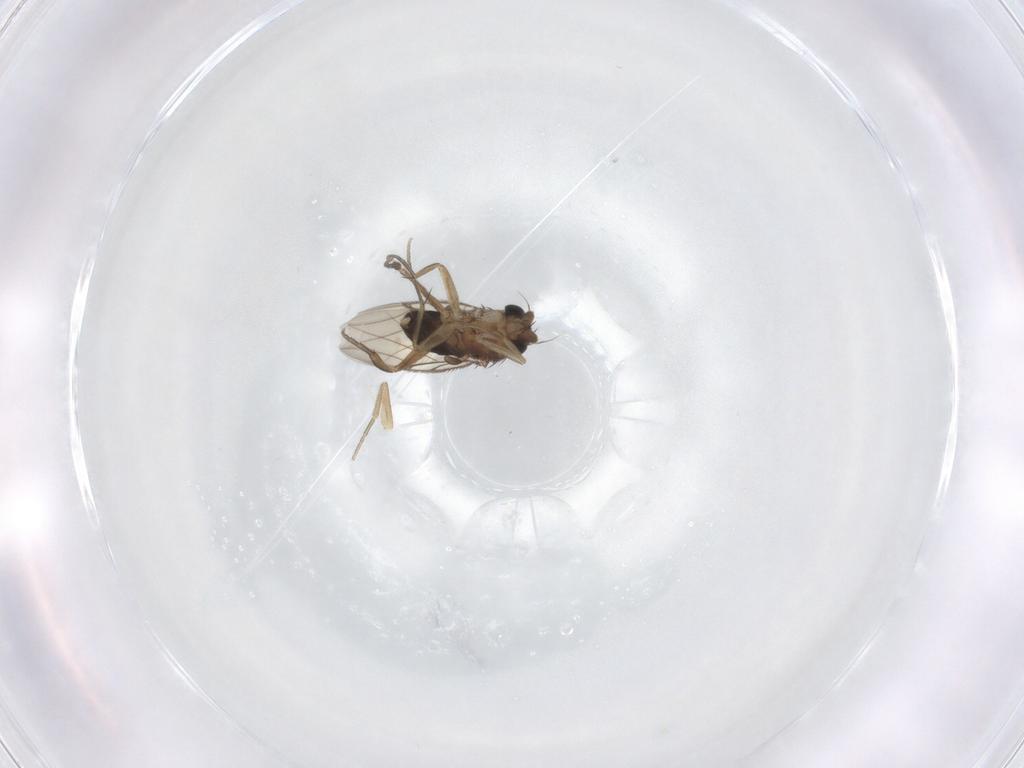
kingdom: Animalia
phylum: Arthropoda
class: Insecta
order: Diptera
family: Phoridae
